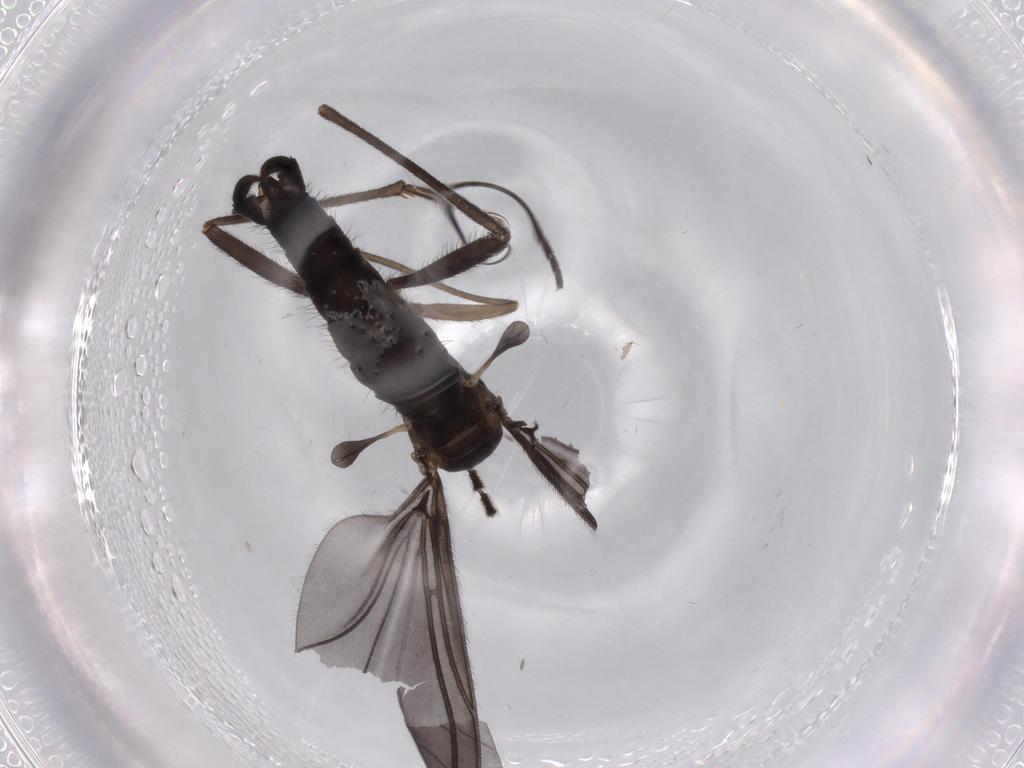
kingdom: Animalia
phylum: Arthropoda
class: Insecta
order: Diptera
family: Phoridae
